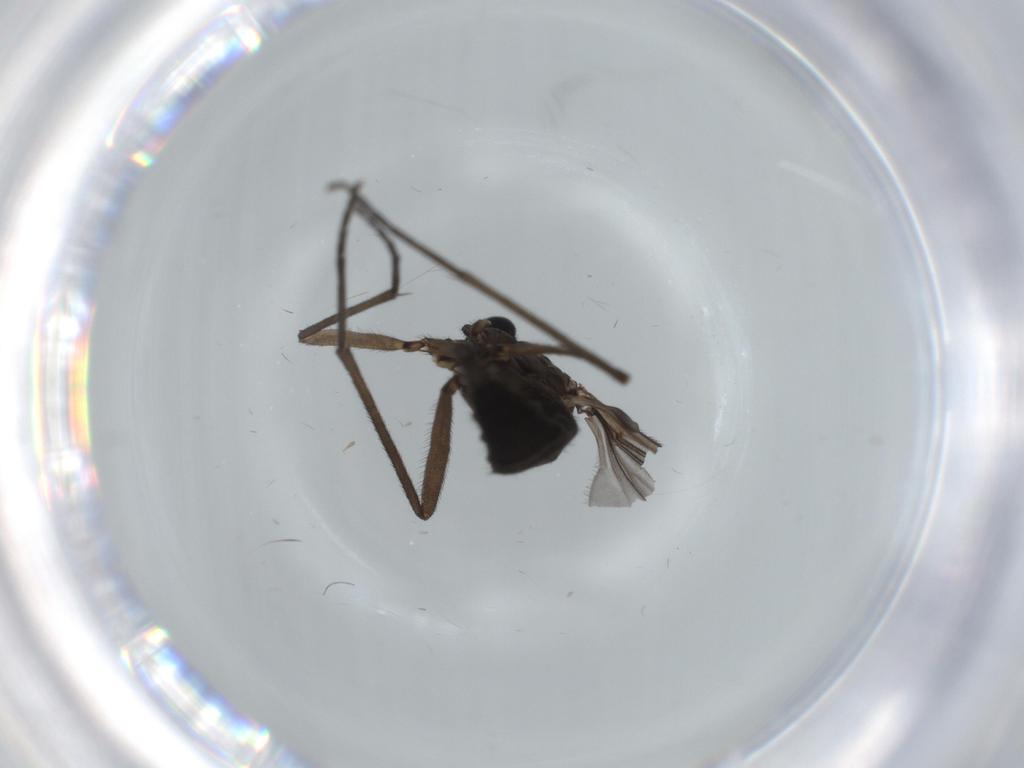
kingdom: Animalia
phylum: Arthropoda
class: Insecta
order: Diptera
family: Sciaridae
